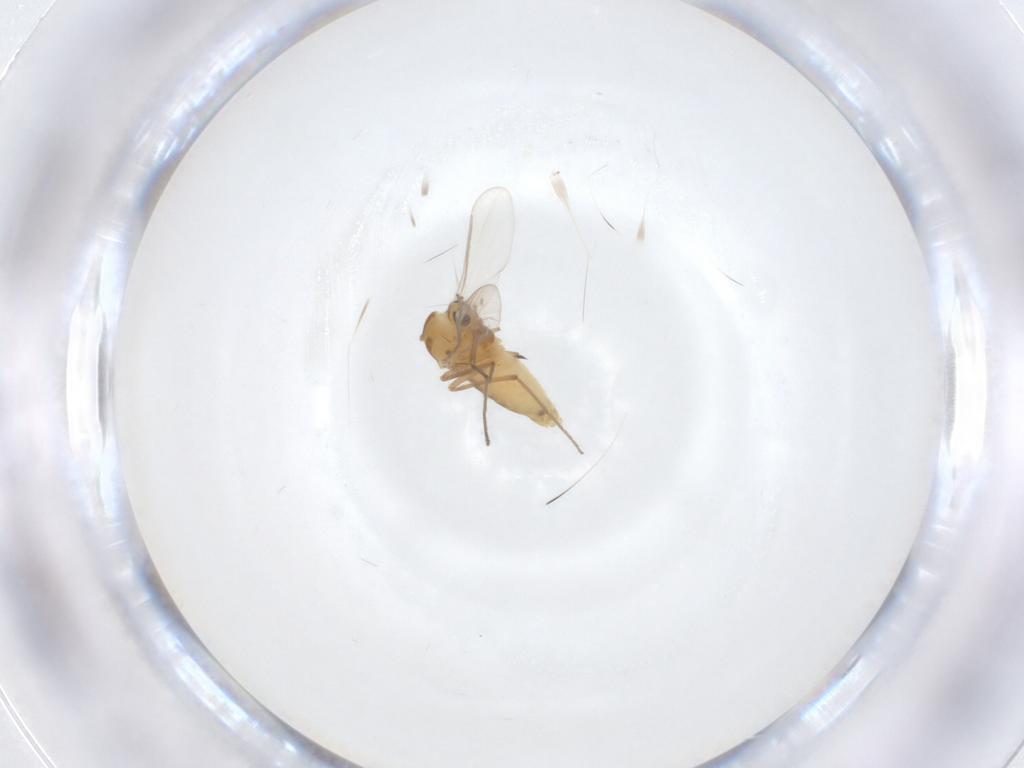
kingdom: Animalia
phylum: Arthropoda
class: Insecta
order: Diptera
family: Chironomidae
